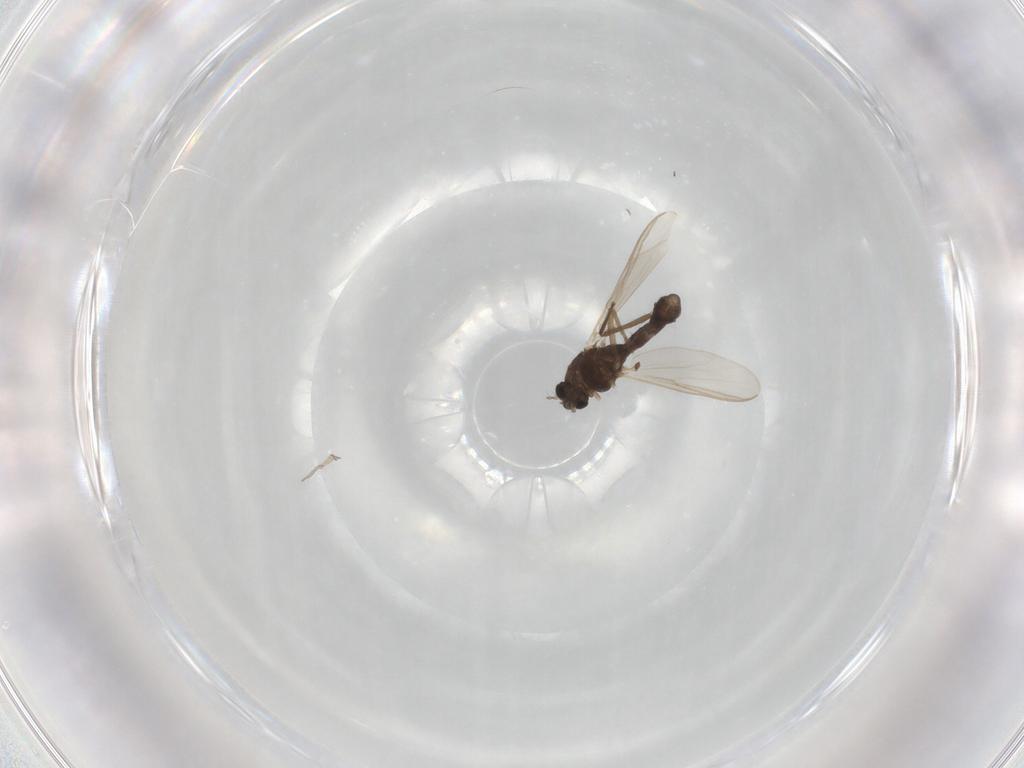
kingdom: Animalia
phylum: Arthropoda
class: Insecta
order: Diptera
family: Chironomidae
